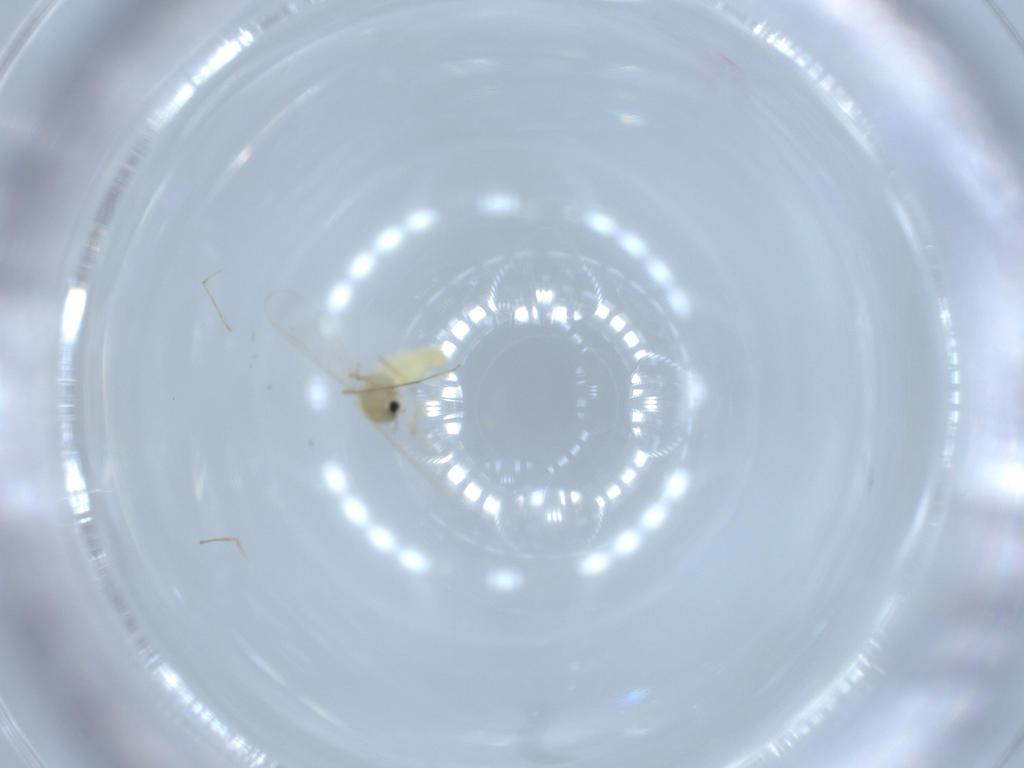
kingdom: Animalia
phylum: Arthropoda
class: Insecta
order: Diptera
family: Chironomidae
